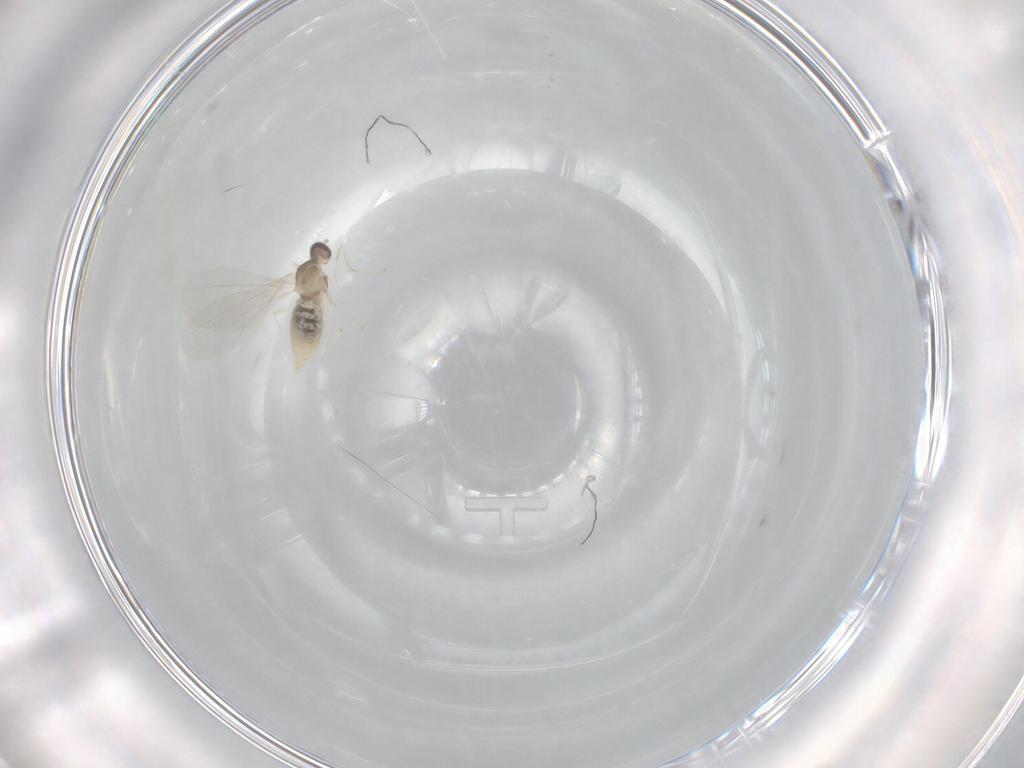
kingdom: Animalia
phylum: Arthropoda
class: Insecta
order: Diptera
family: Cecidomyiidae
